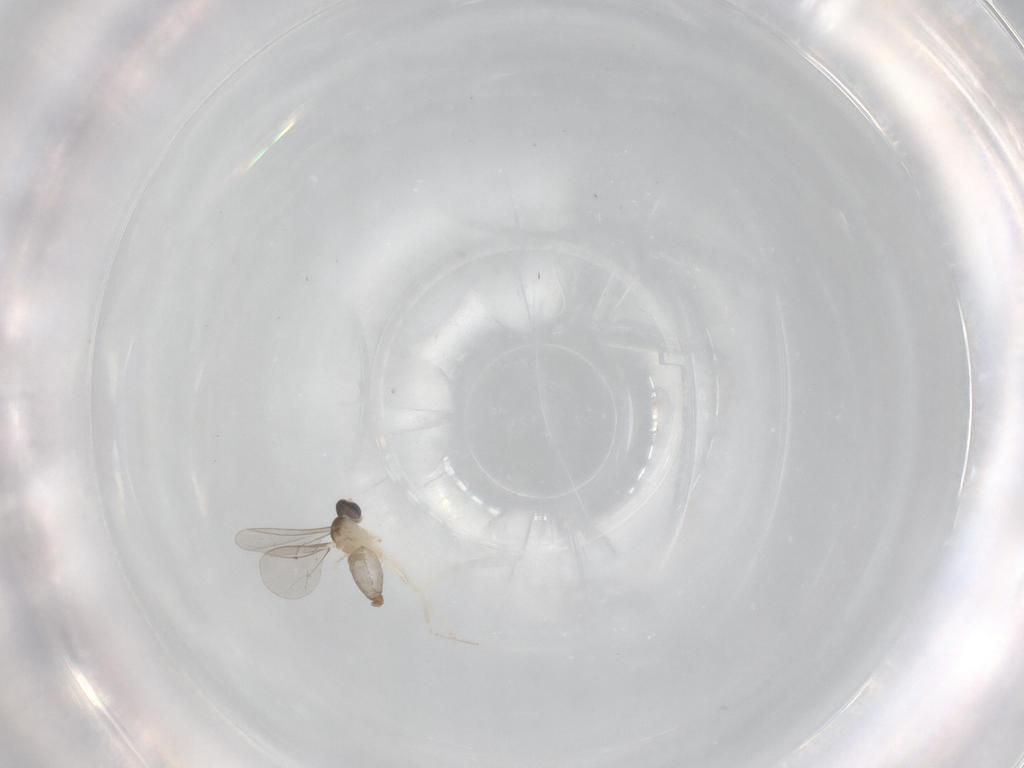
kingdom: Animalia
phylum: Arthropoda
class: Insecta
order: Diptera
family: Cecidomyiidae
